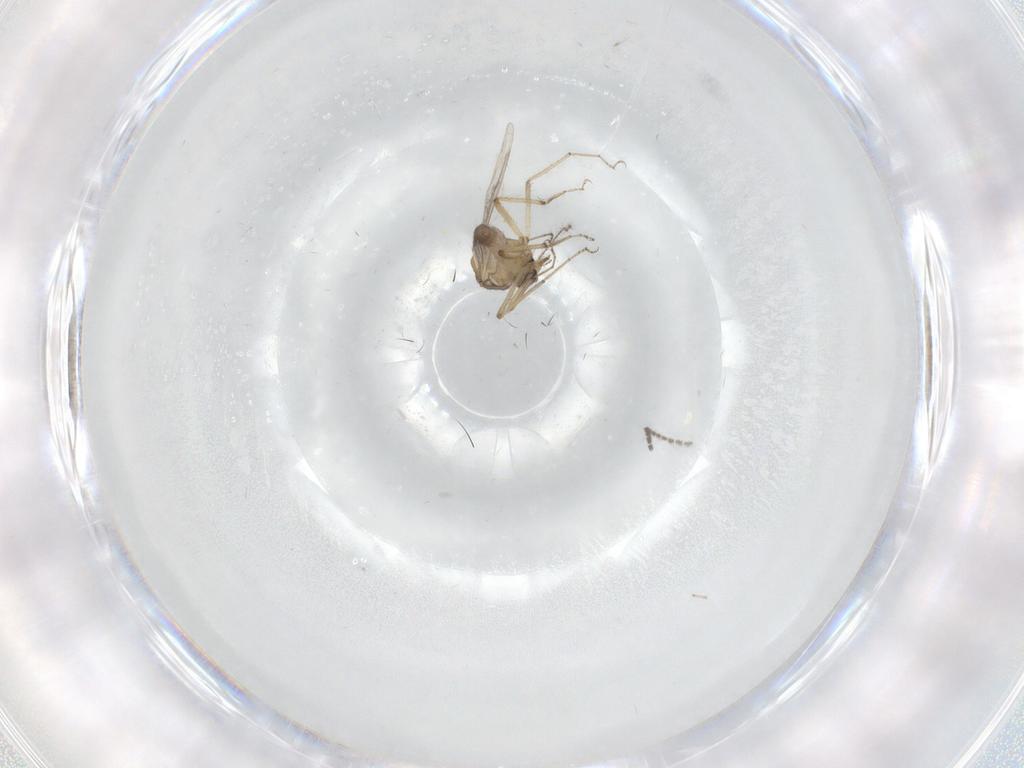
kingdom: Animalia
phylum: Arthropoda
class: Insecta
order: Diptera
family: Sciaridae
